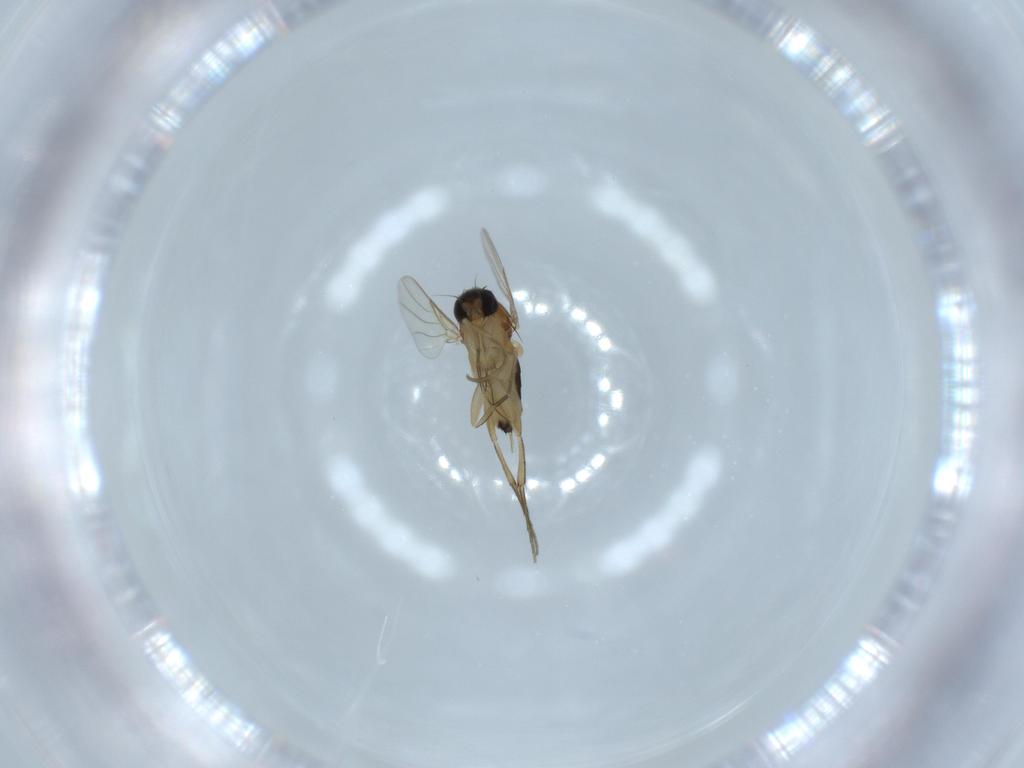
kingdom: Animalia
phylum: Arthropoda
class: Insecta
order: Diptera
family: Phoridae
